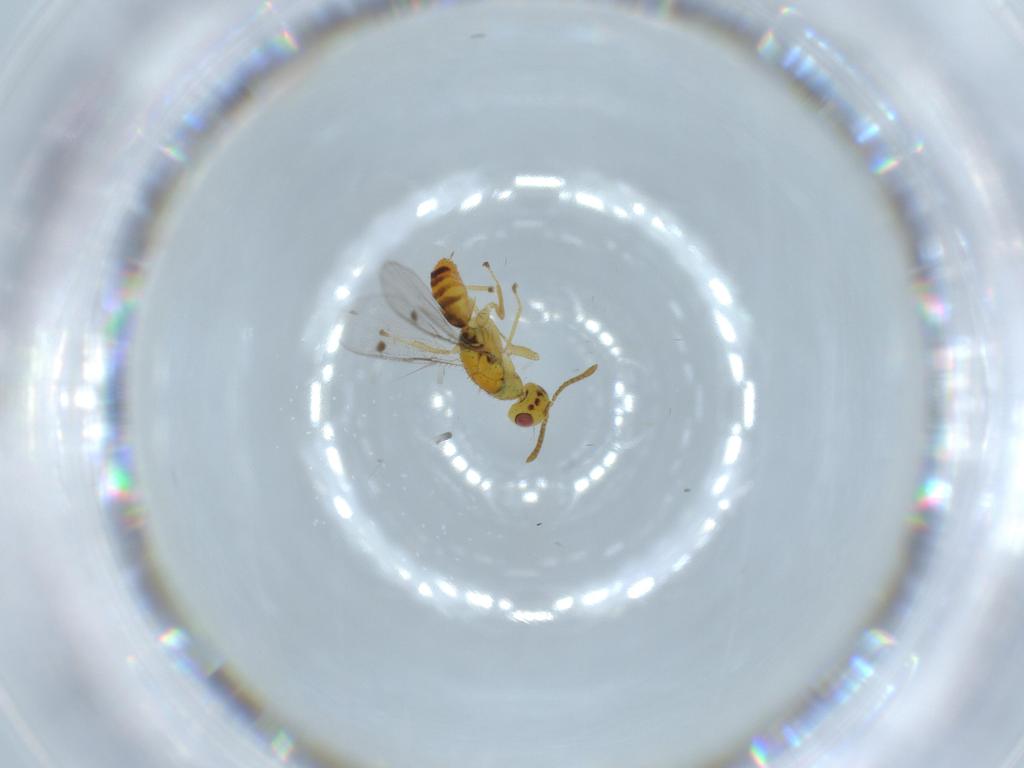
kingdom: Animalia
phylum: Arthropoda
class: Insecta
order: Hymenoptera
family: Megastigmidae
